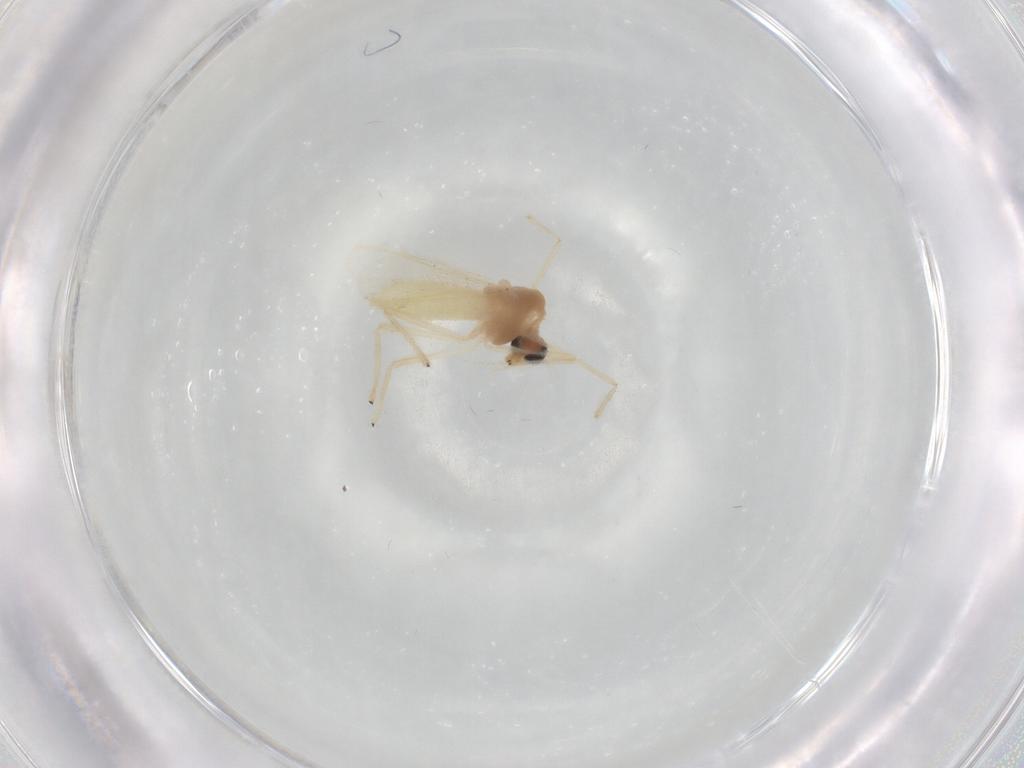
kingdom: Animalia
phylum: Arthropoda
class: Insecta
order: Diptera
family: Chironomidae
